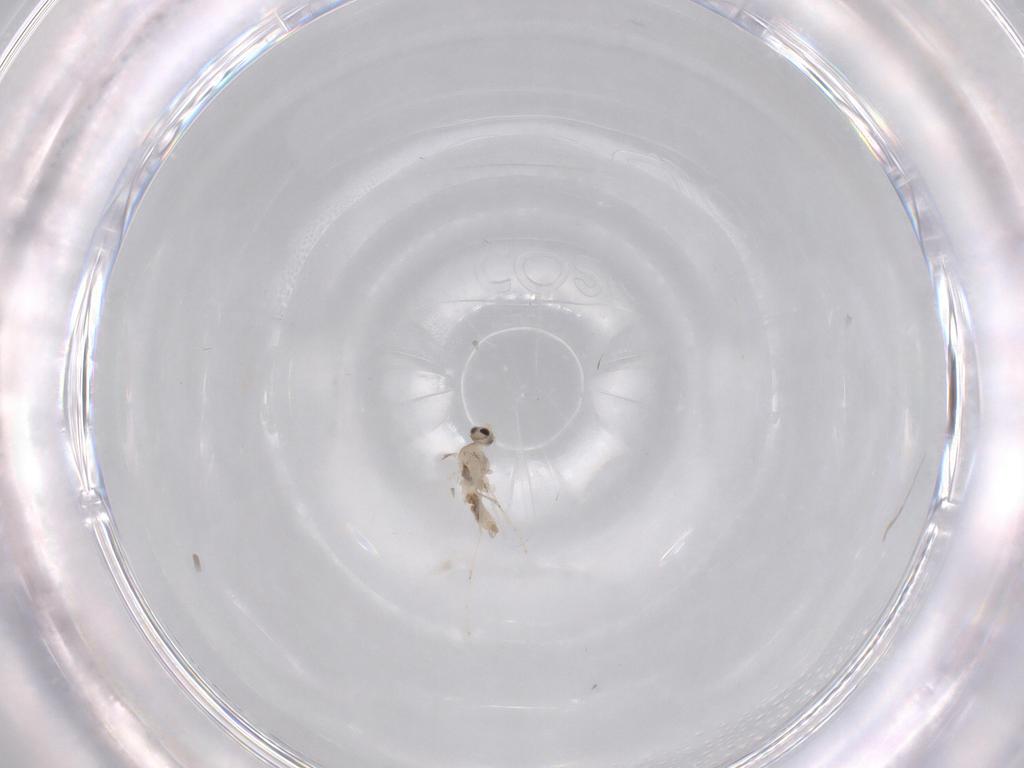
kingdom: Animalia
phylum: Arthropoda
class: Insecta
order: Diptera
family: Cecidomyiidae
